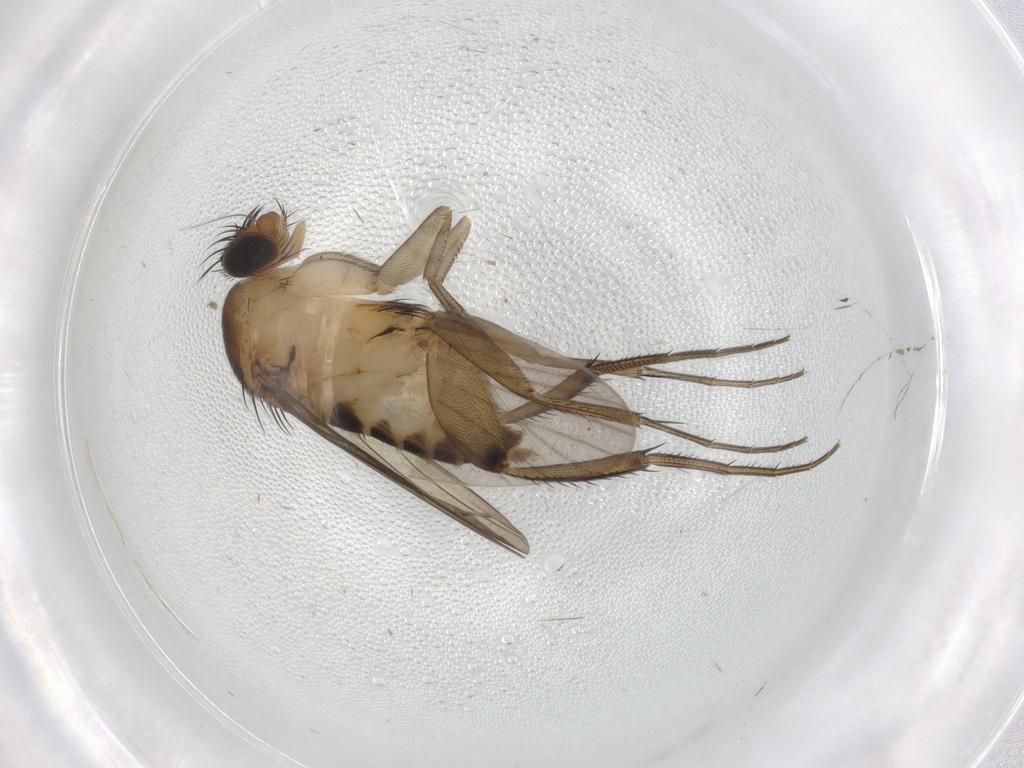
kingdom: Animalia
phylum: Arthropoda
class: Insecta
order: Diptera
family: Phoridae
